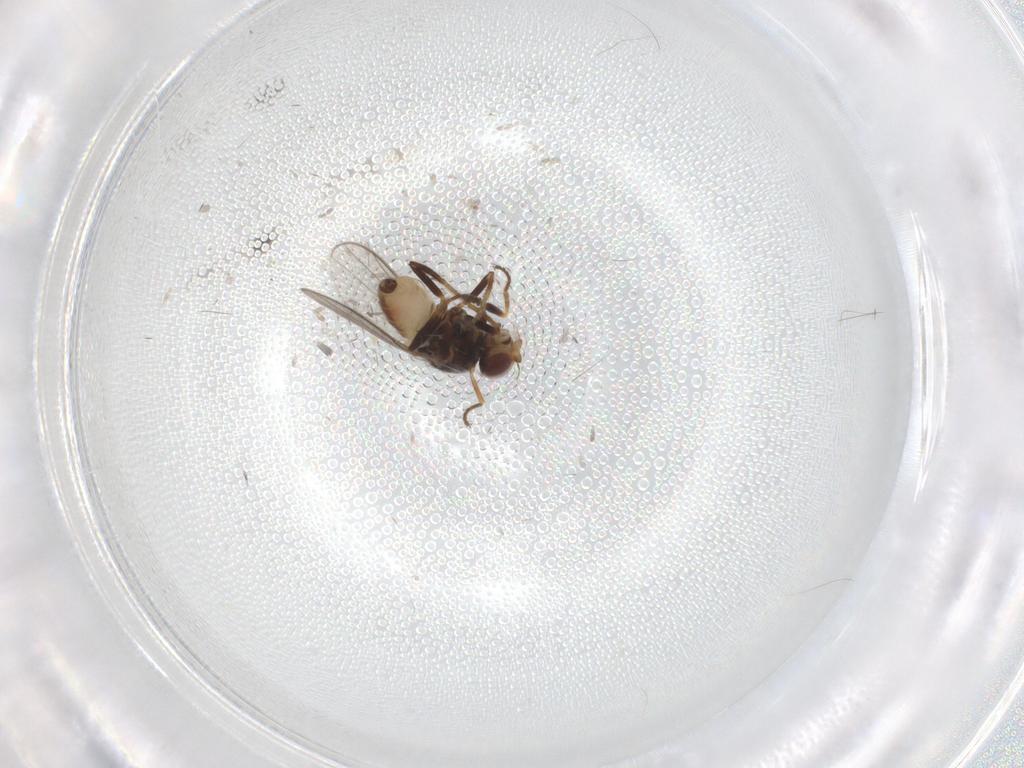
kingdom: Animalia
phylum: Arthropoda
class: Insecta
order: Diptera
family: Chloropidae
